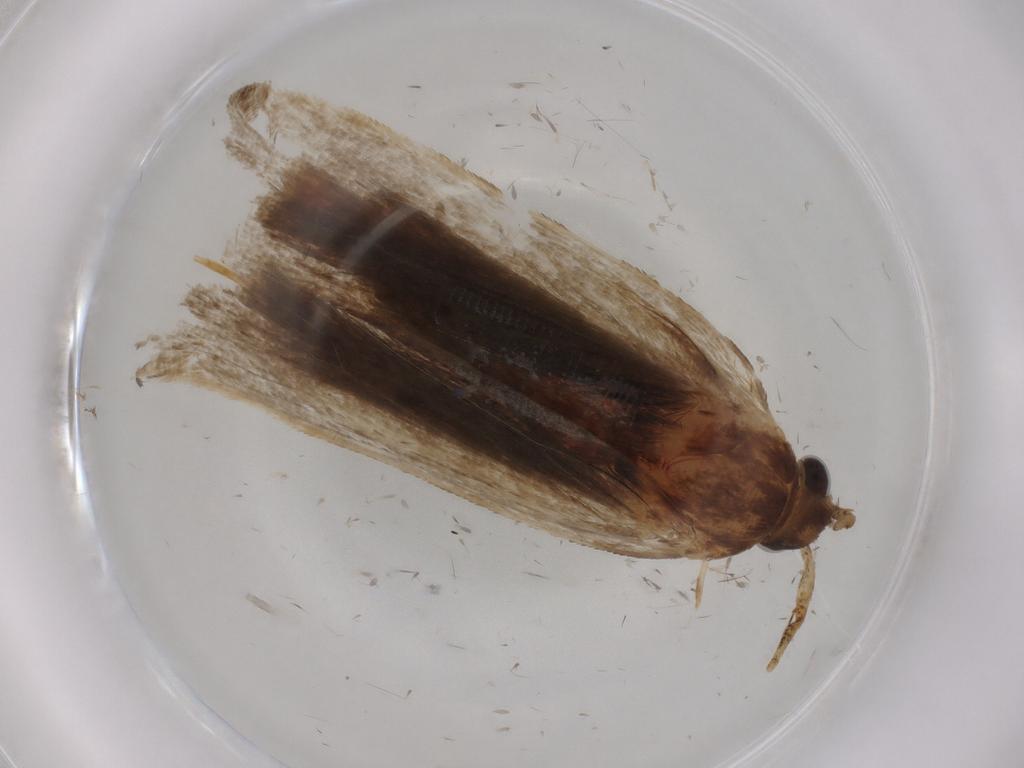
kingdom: Animalia
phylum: Arthropoda
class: Insecta
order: Lepidoptera
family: Autostichidae
